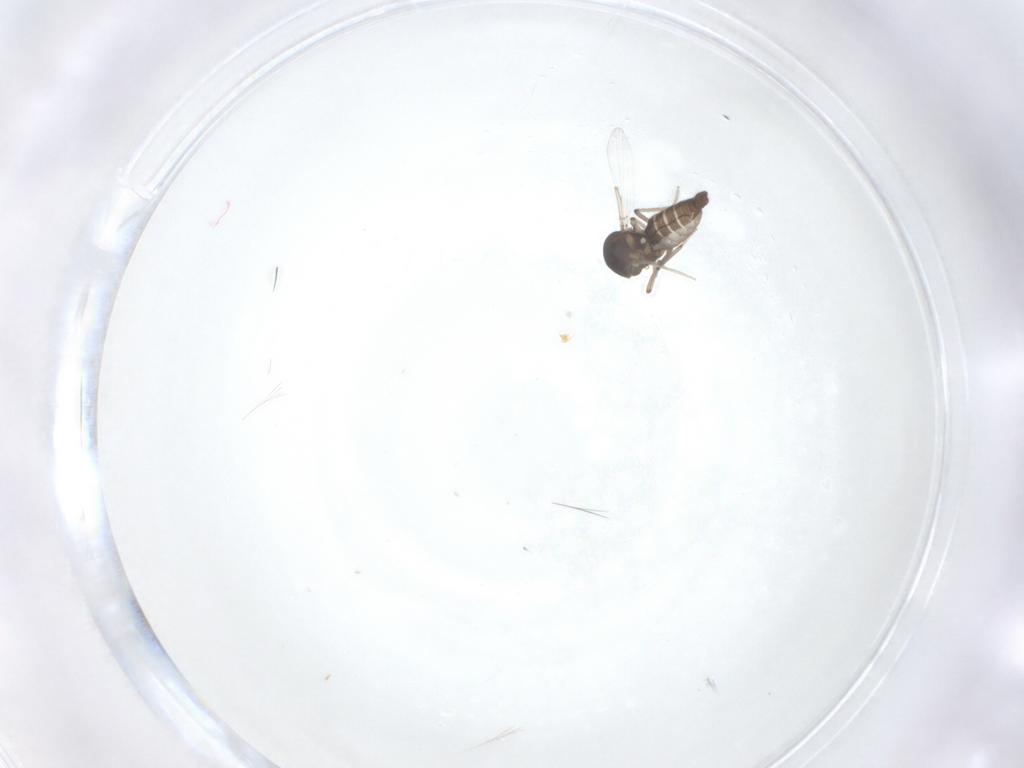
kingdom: Animalia
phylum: Arthropoda
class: Insecta
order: Diptera
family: Ceratopogonidae
